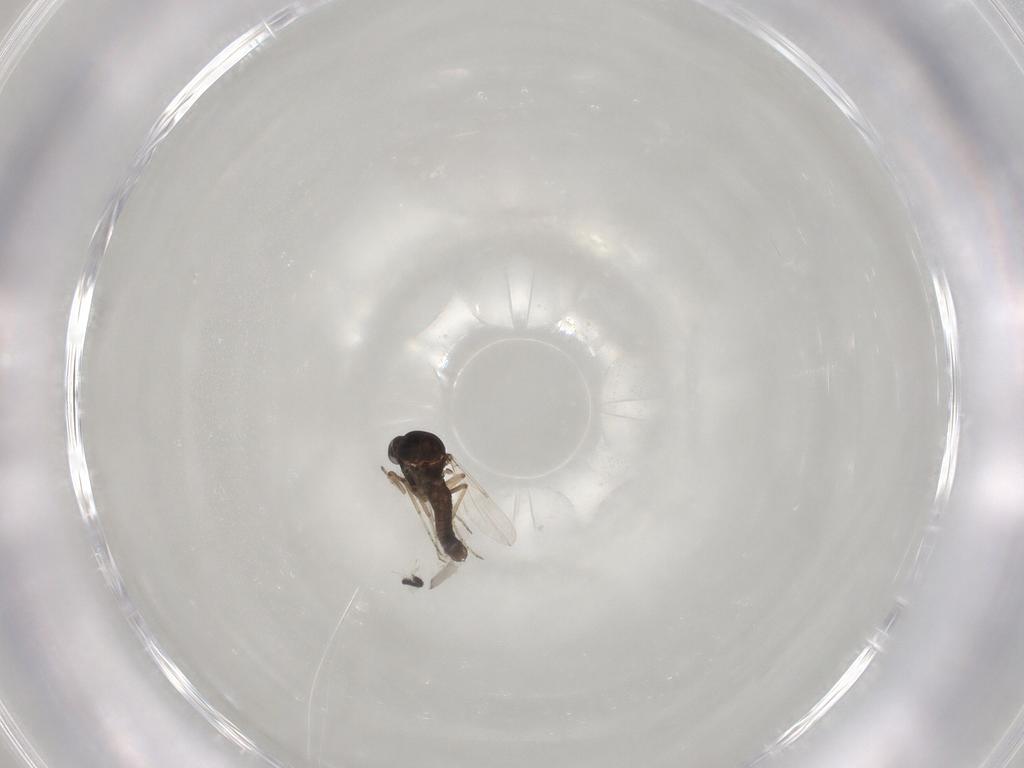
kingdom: Animalia
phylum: Arthropoda
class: Insecta
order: Diptera
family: Ceratopogonidae
